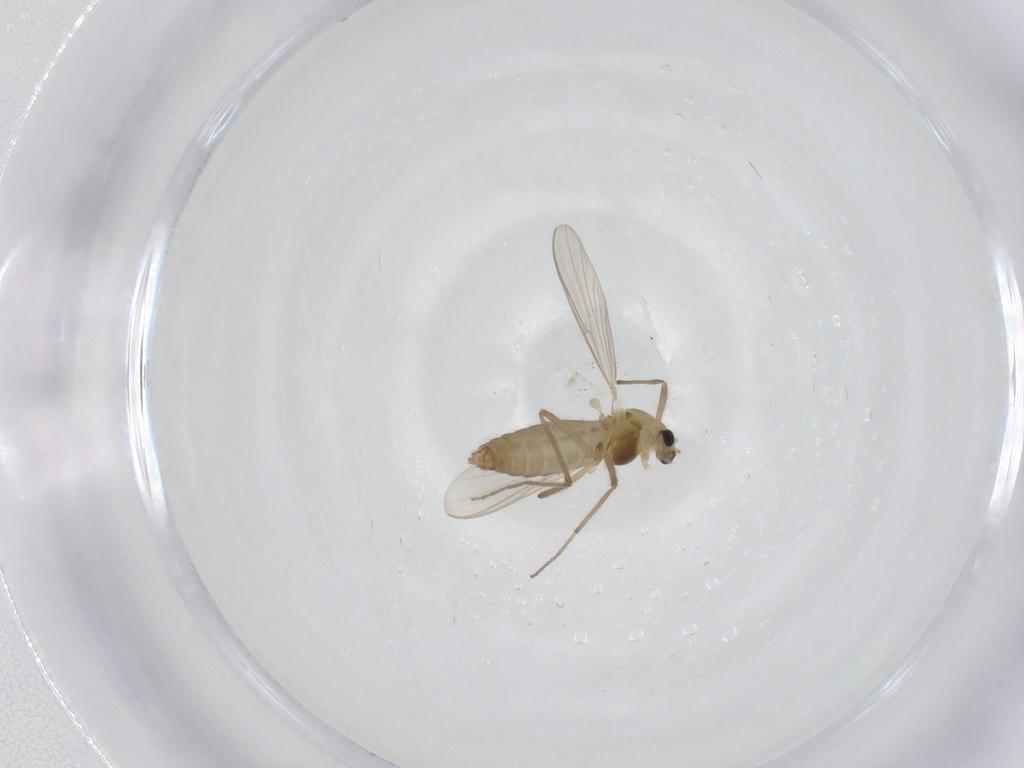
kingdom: Animalia
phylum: Arthropoda
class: Insecta
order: Diptera
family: Chironomidae
